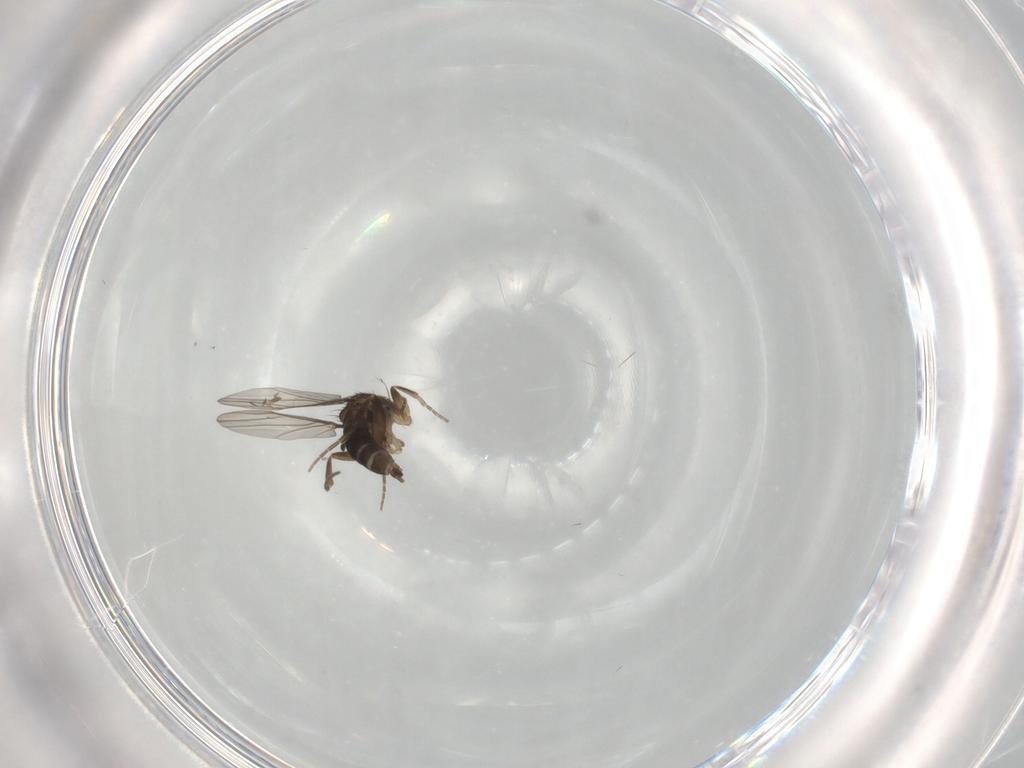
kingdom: Animalia
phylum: Arthropoda
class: Insecta
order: Diptera
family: Phoridae
